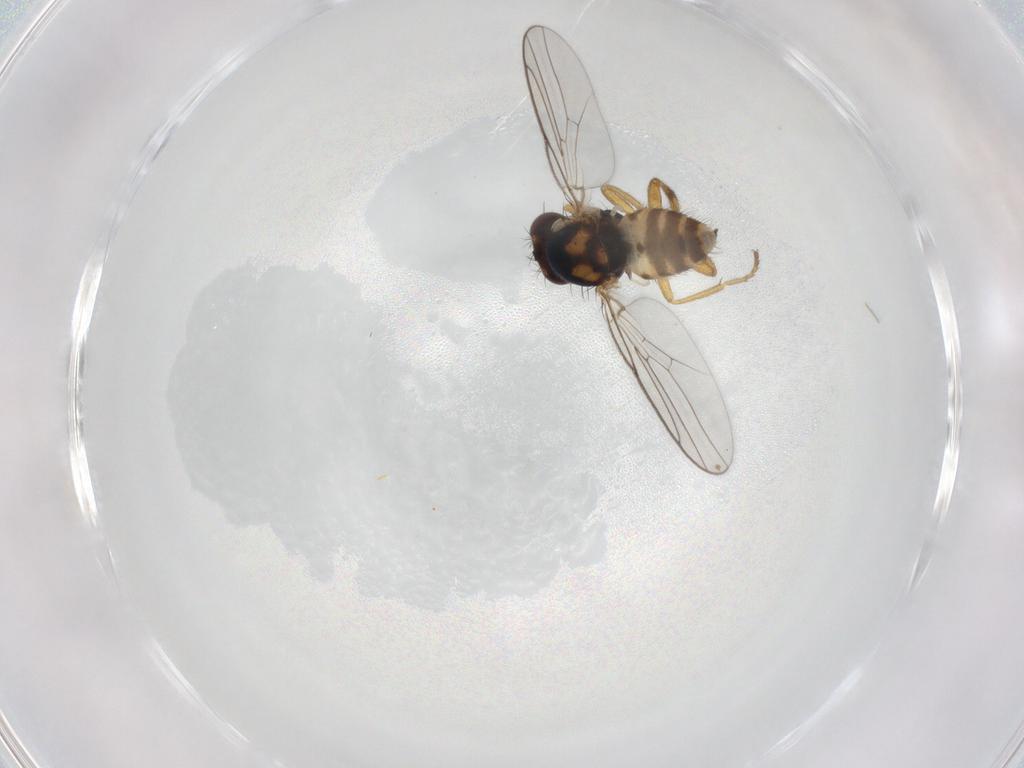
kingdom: Animalia
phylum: Arthropoda
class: Insecta
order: Diptera
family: Chloropidae
